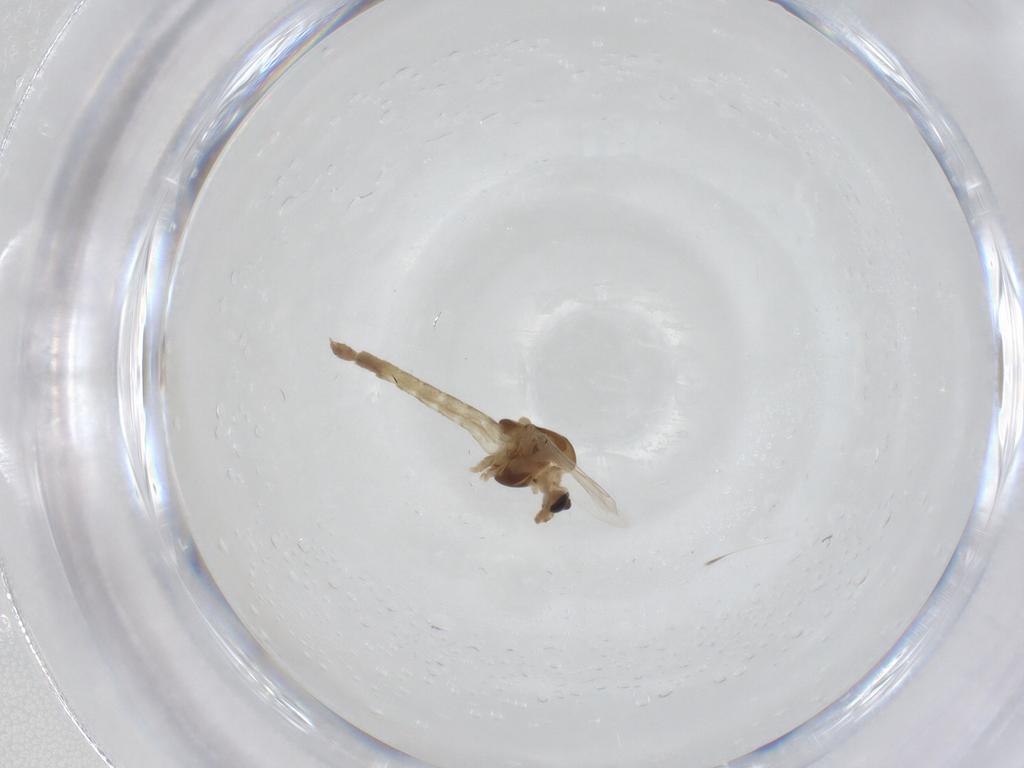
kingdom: Animalia
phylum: Arthropoda
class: Insecta
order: Diptera
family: Chironomidae
